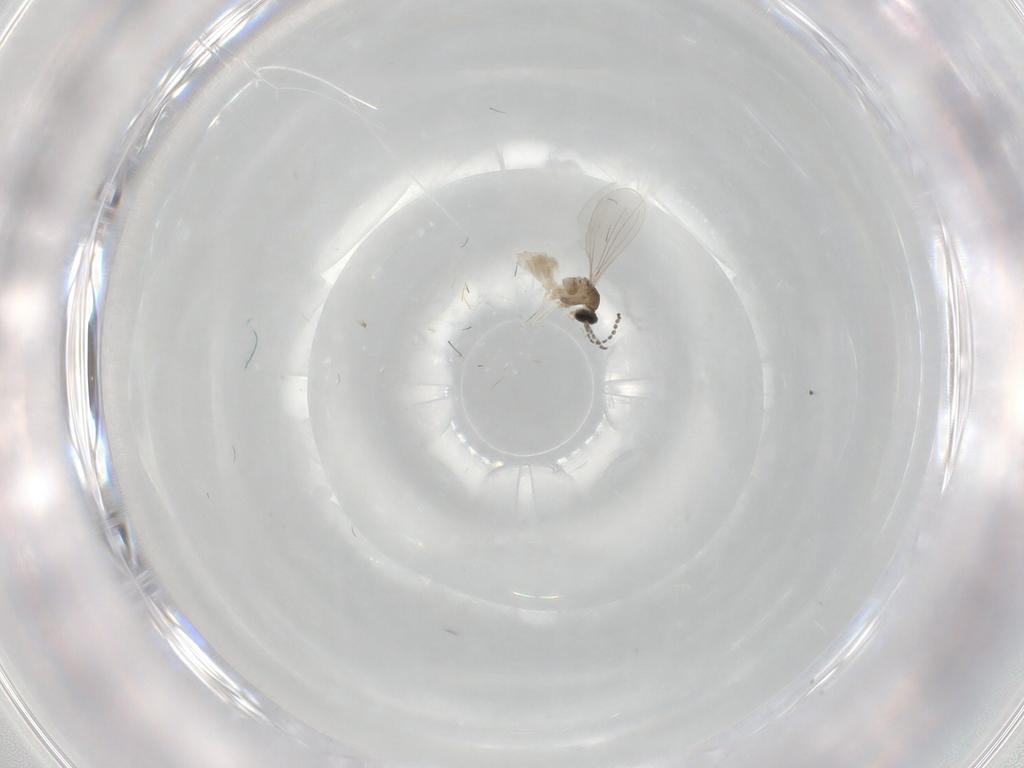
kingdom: Animalia
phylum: Arthropoda
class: Insecta
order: Diptera
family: Cecidomyiidae
